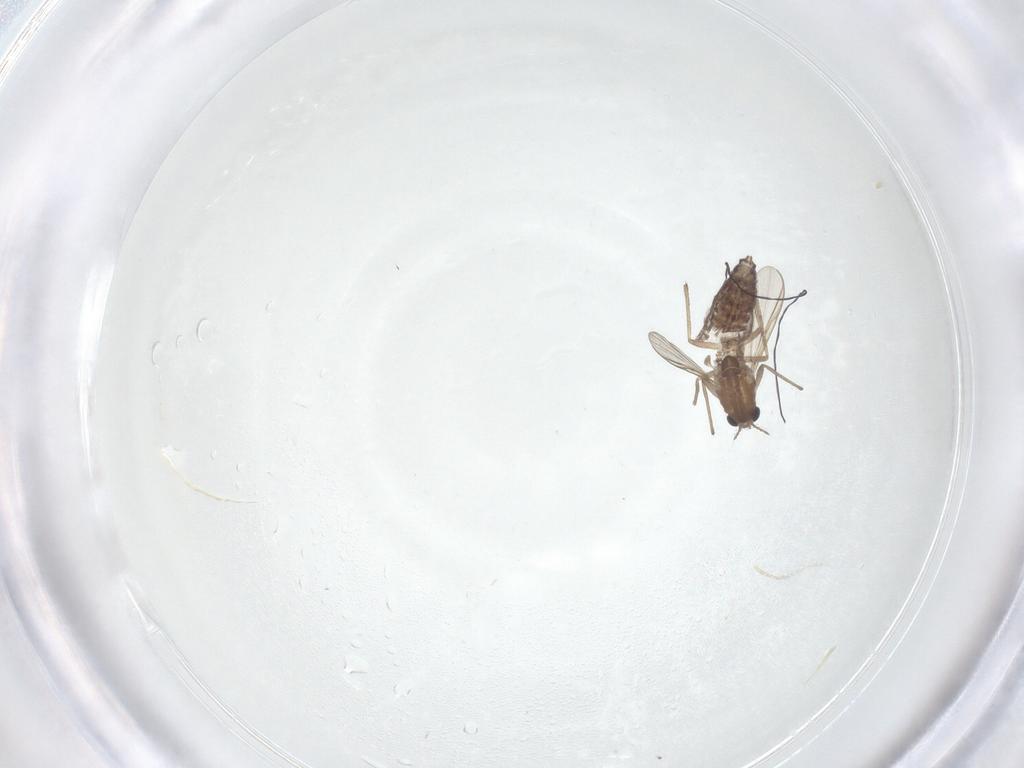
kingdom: Animalia
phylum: Arthropoda
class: Insecta
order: Diptera
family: Chironomidae
